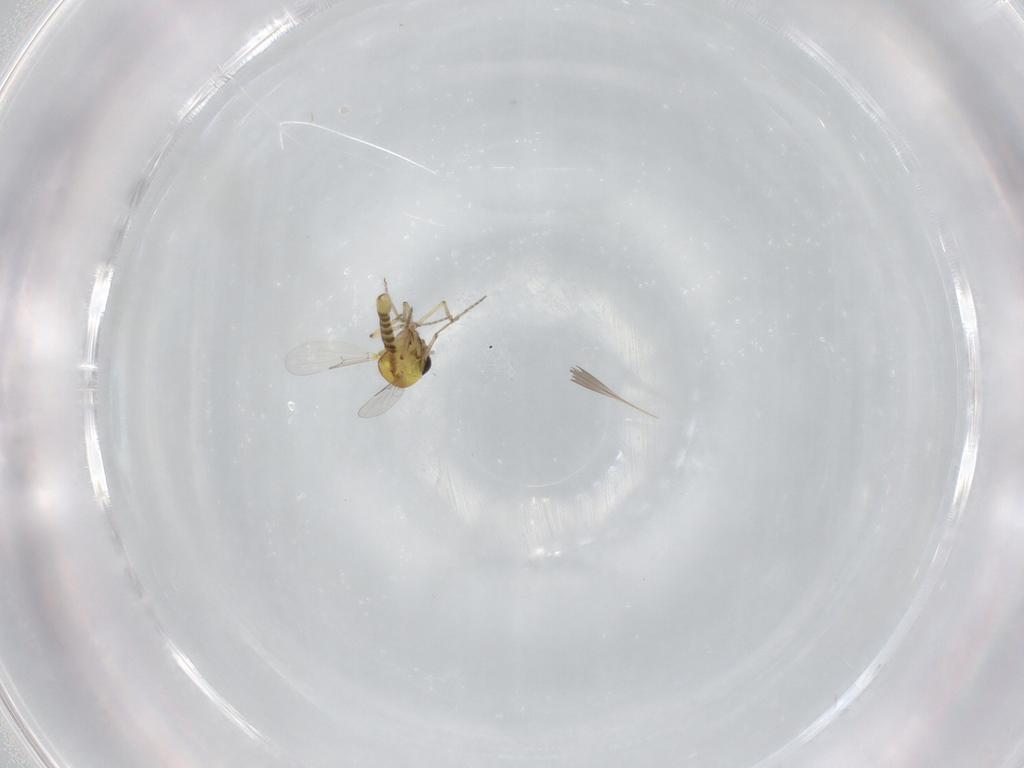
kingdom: Animalia
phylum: Arthropoda
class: Insecta
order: Diptera
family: Ceratopogonidae
